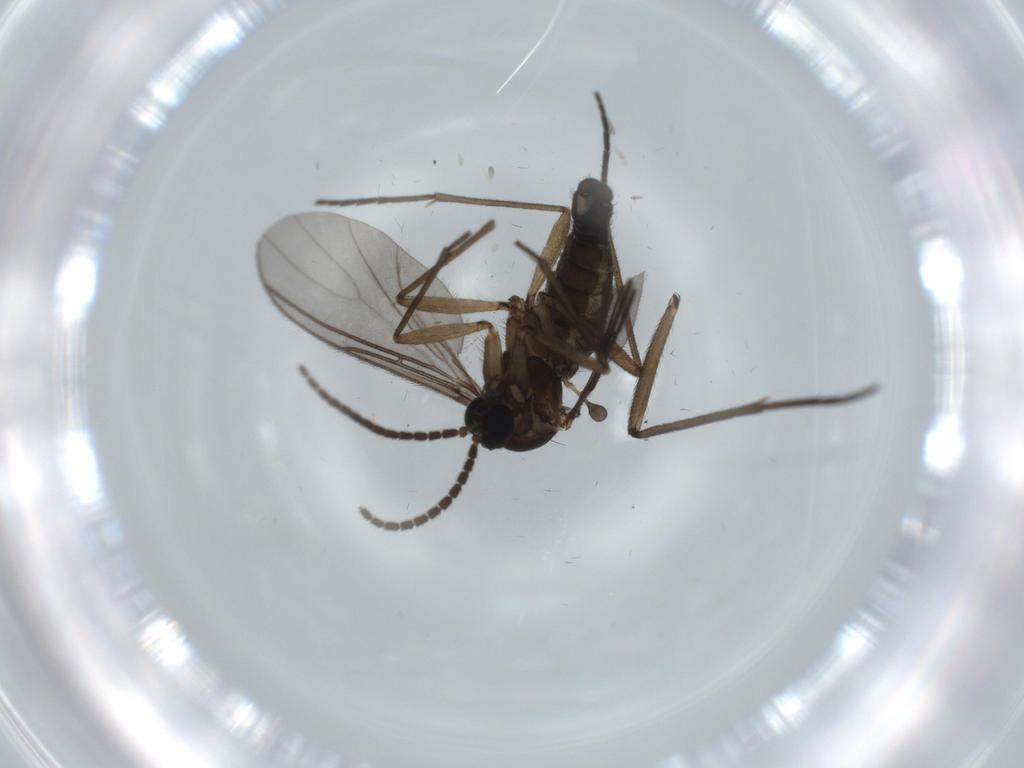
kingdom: Animalia
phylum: Arthropoda
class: Insecta
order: Diptera
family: Sciaridae
